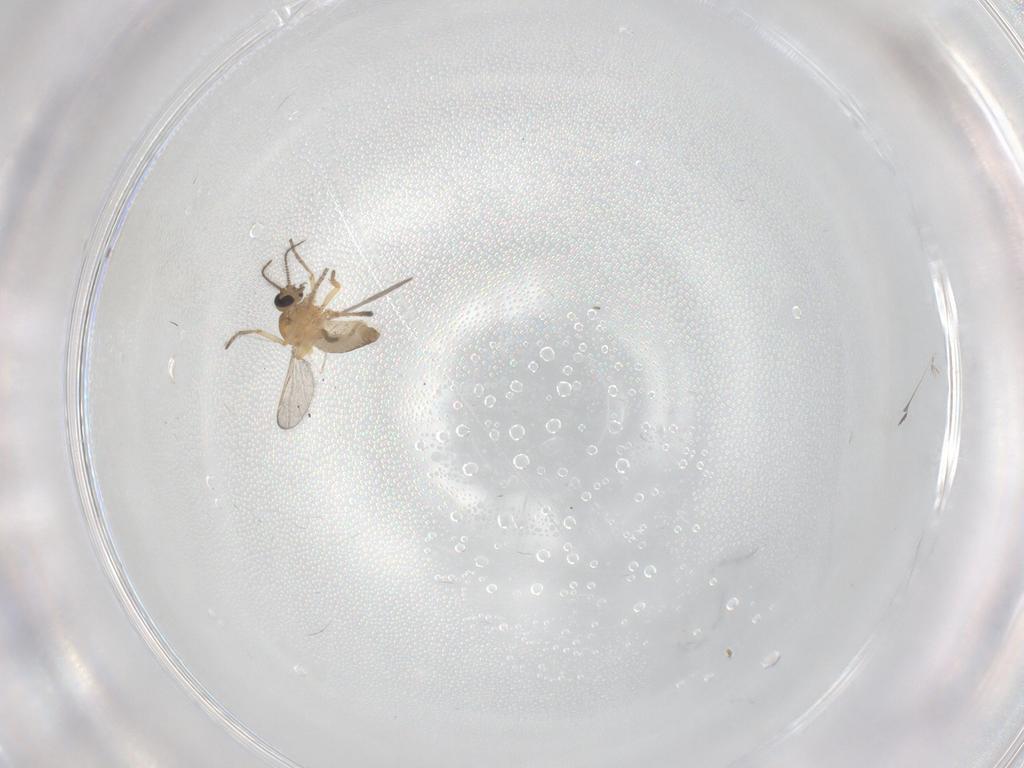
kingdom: Animalia
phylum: Arthropoda
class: Insecta
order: Diptera
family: Ceratopogonidae
